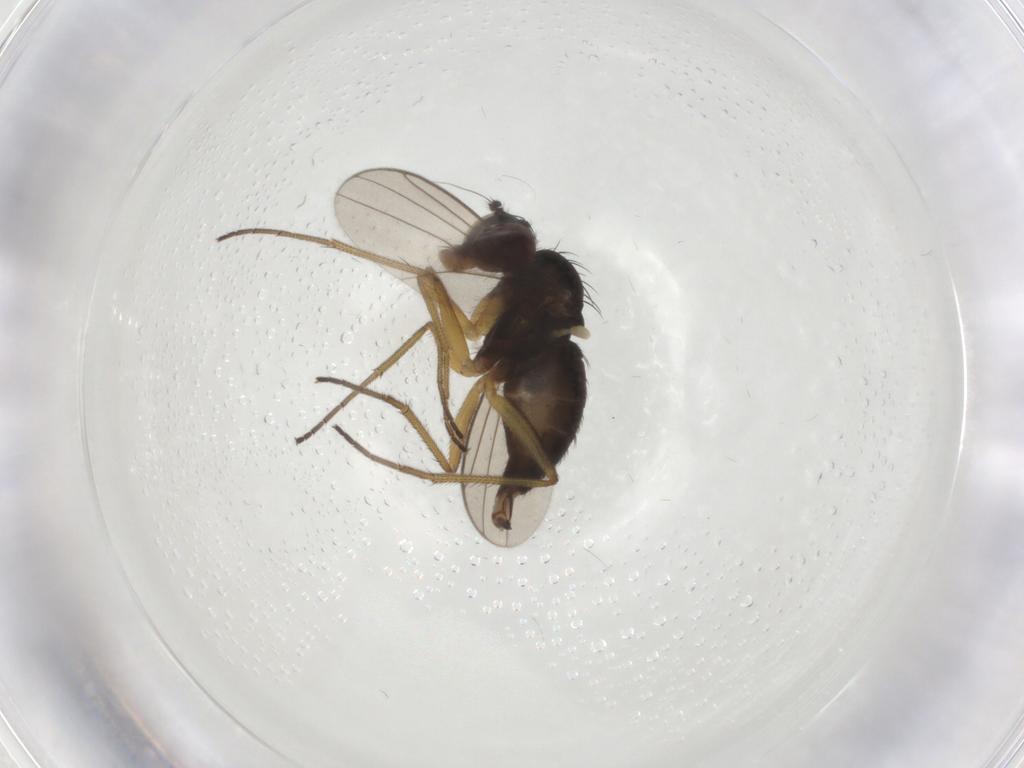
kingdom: Animalia
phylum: Arthropoda
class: Insecta
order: Diptera
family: Dolichopodidae
